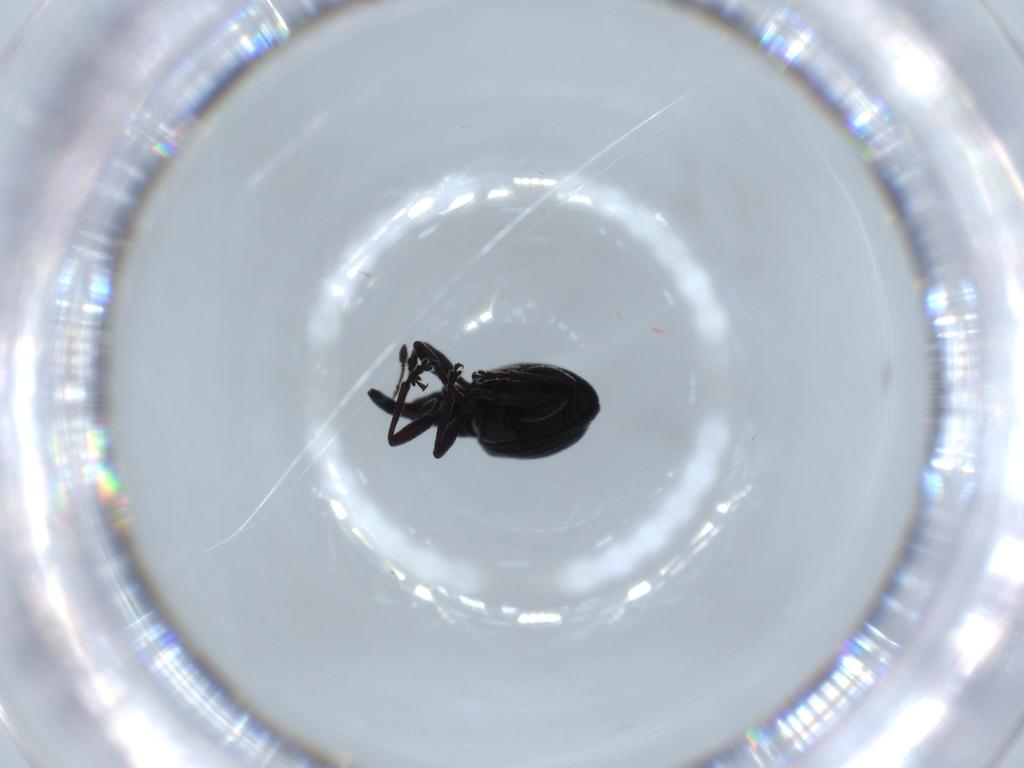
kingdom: Animalia
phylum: Arthropoda
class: Insecta
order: Coleoptera
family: Brentidae
